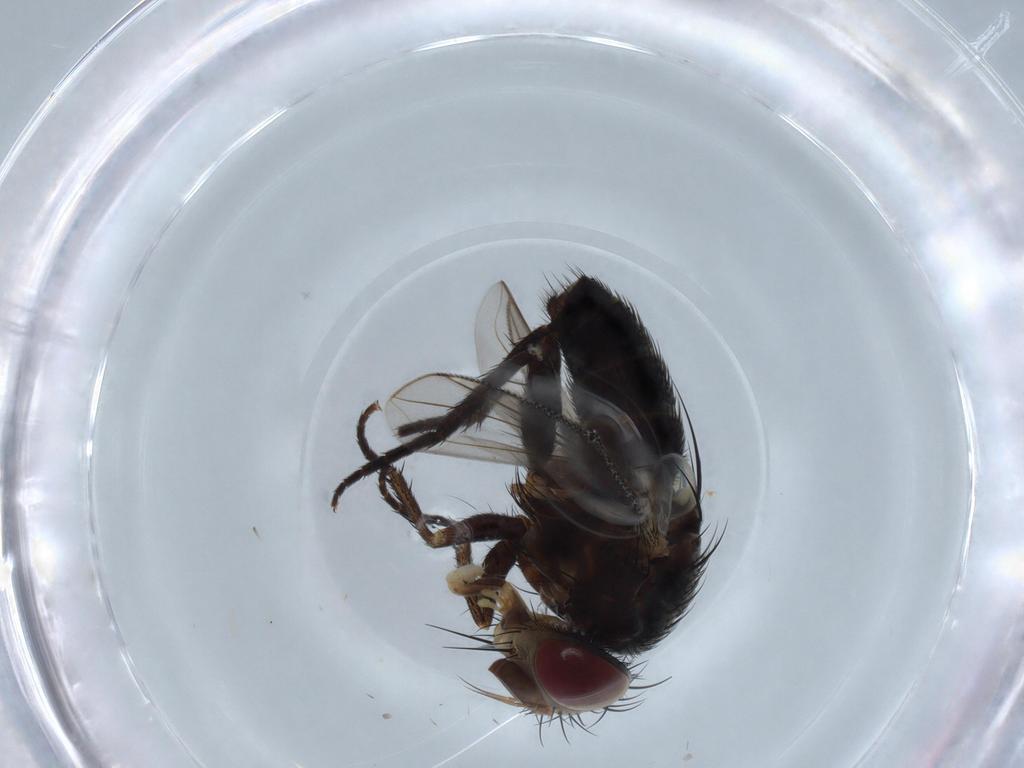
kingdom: Animalia
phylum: Arthropoda
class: Insecta
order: Diptera
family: Tachinidae
